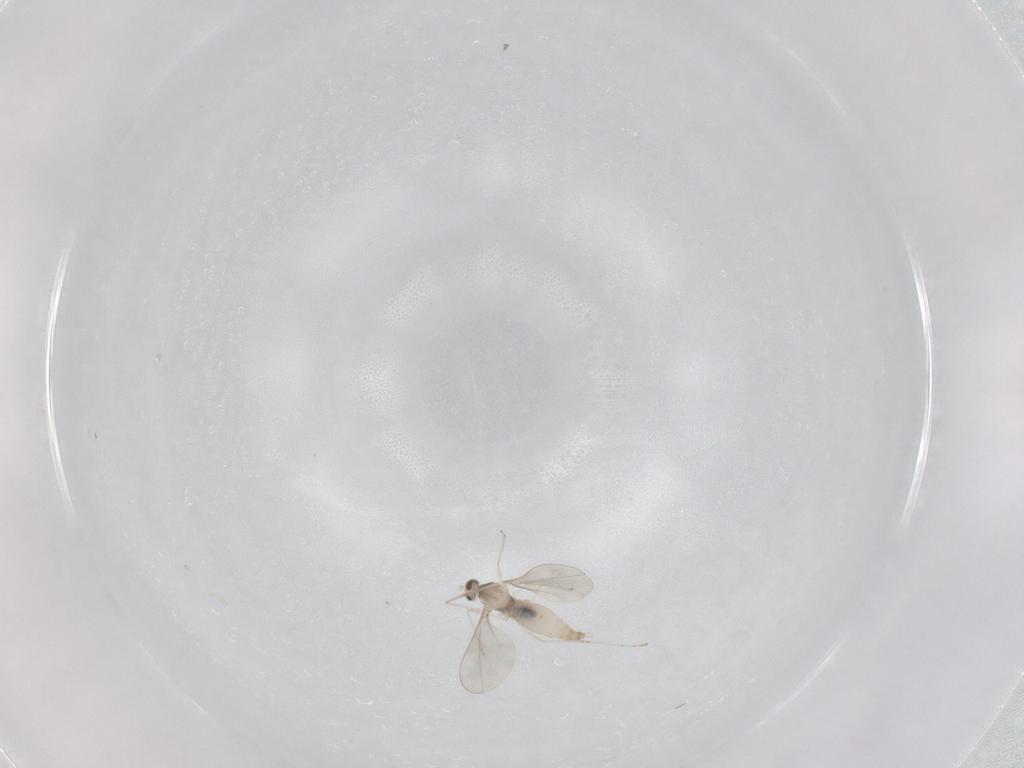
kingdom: Animalia
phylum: Arthropoda
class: Insecta
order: Diptera
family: Cecidomyiidae
